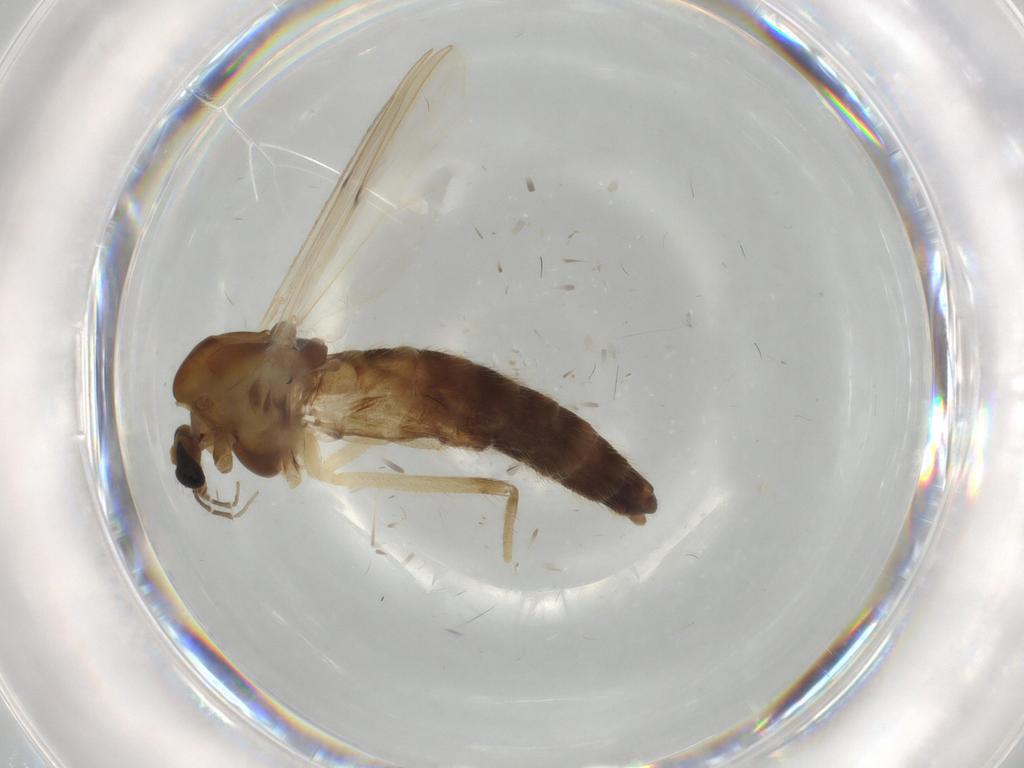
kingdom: Animalia
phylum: Arthropoda
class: Insecta
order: Diptera
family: Chironomidae
